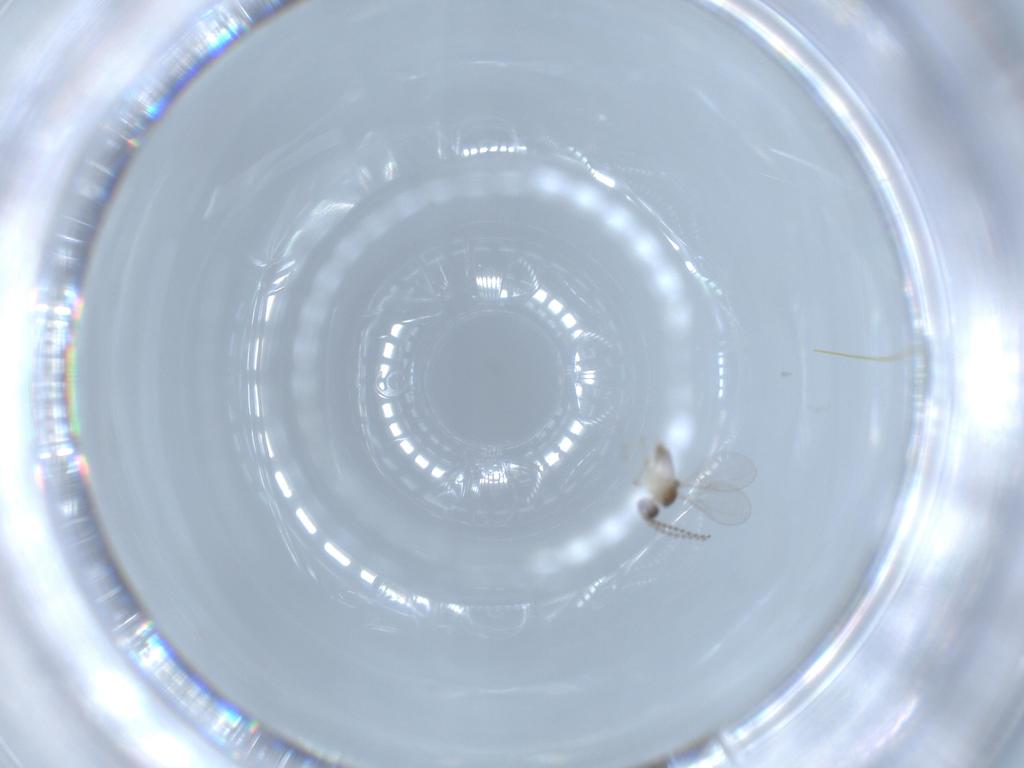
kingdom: Animalia
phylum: Arthropoda
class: Insecta
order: Diptera
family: Cecidomyiidae
